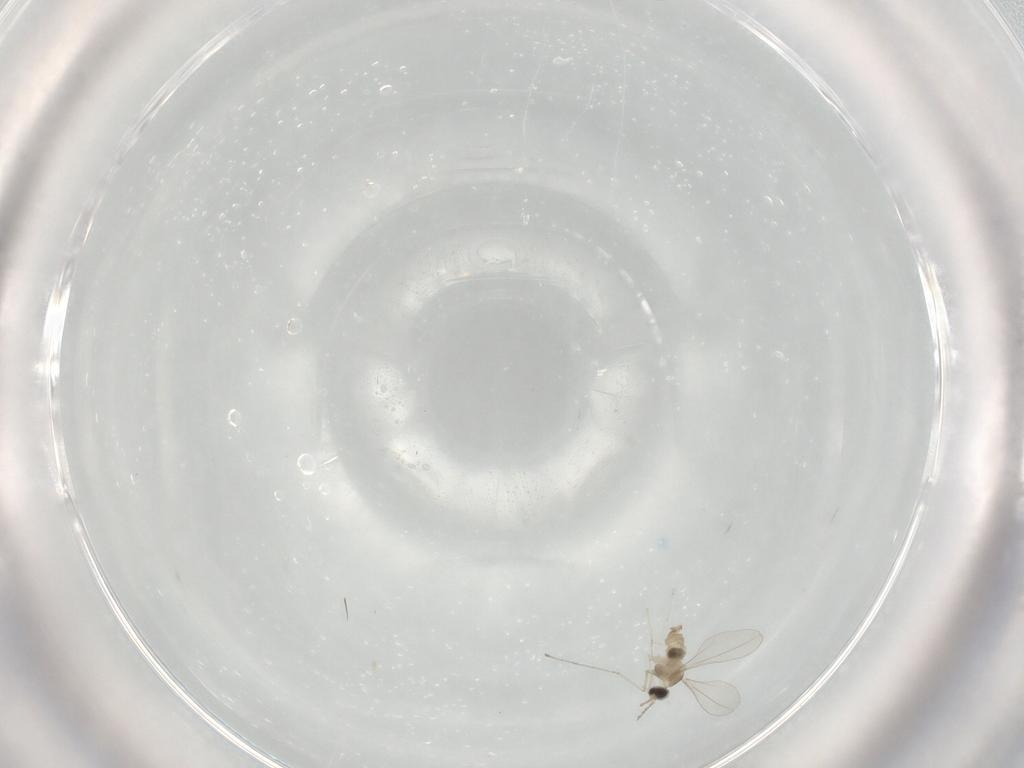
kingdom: Animalia
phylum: Arthropoda
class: Insecta
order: Diptera
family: Cecidomyiidae
